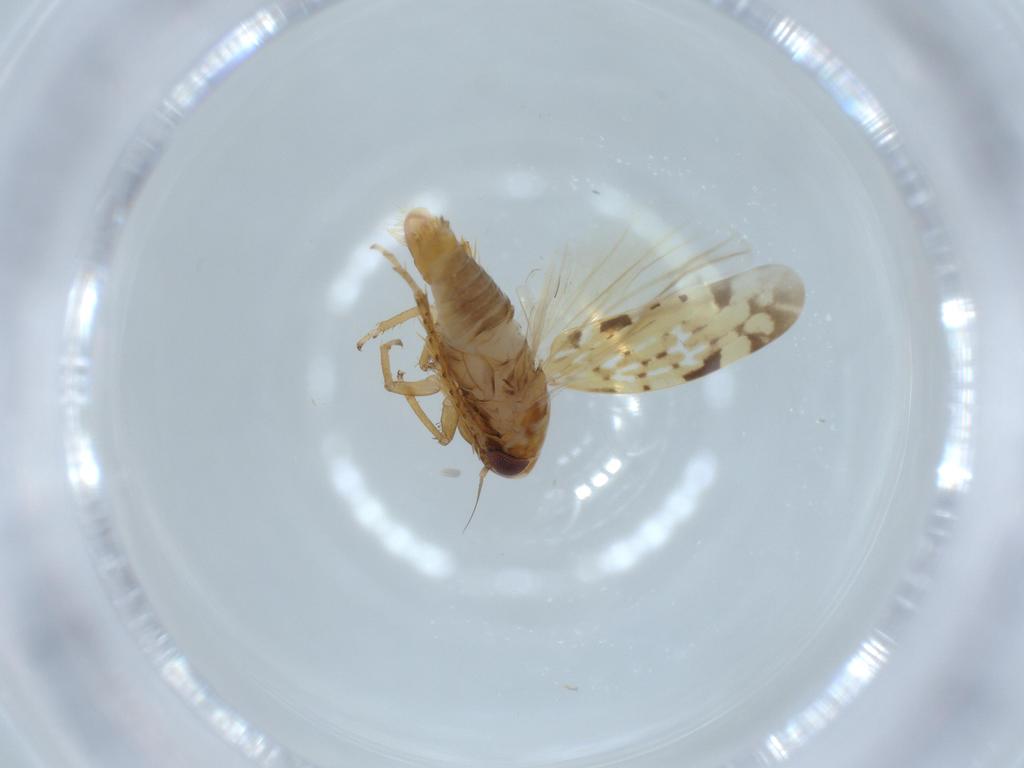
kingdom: Animalia
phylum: Arthropoda
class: Insecta
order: Hemiptera
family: Cicadellidae
